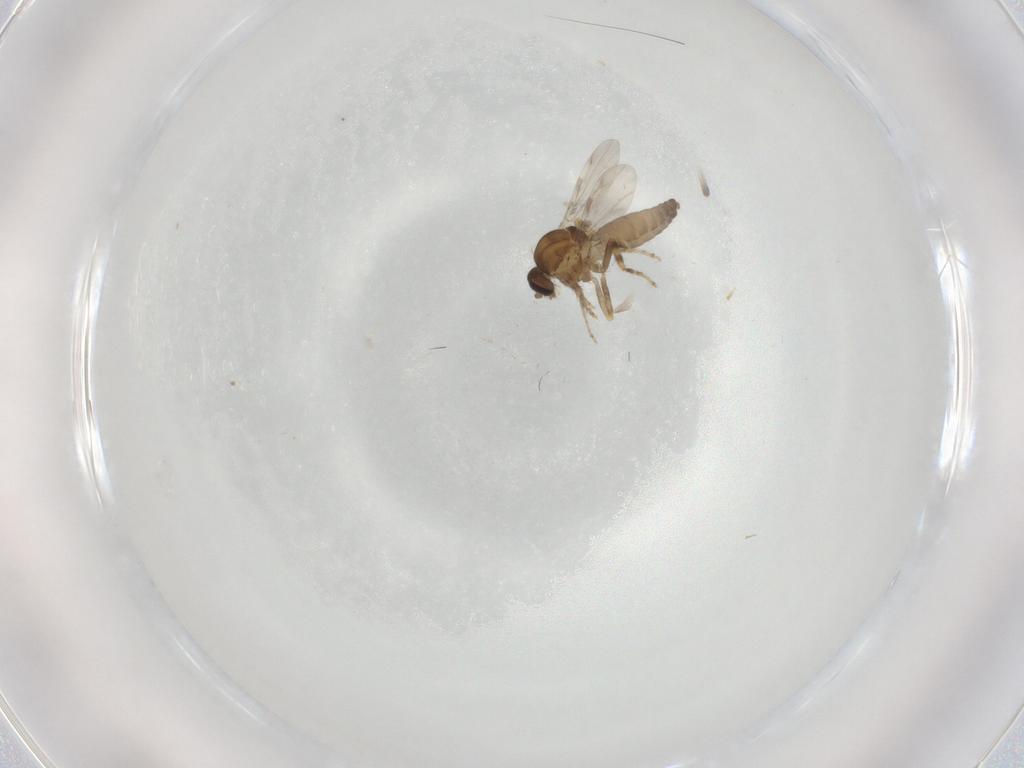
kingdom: Animalia
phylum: Arthropoda
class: Insecta
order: Diptera
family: Ceratopogonidae
